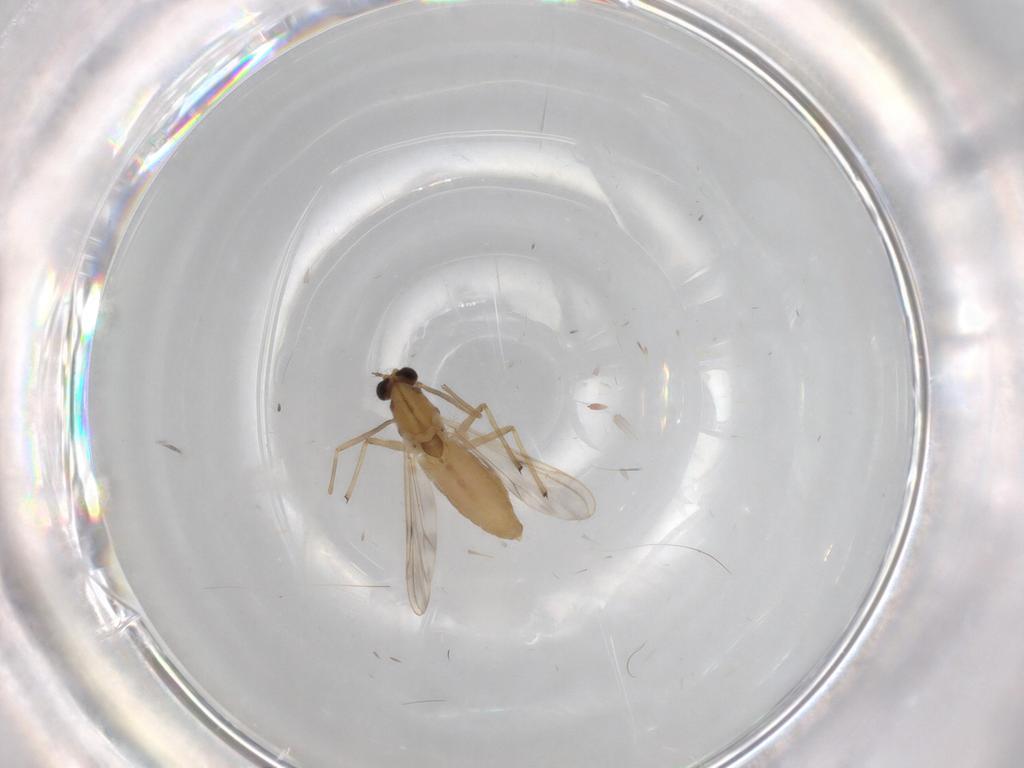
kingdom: Animalia
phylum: Arthropoda
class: Insecta
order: Diptera
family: Chironomidae
